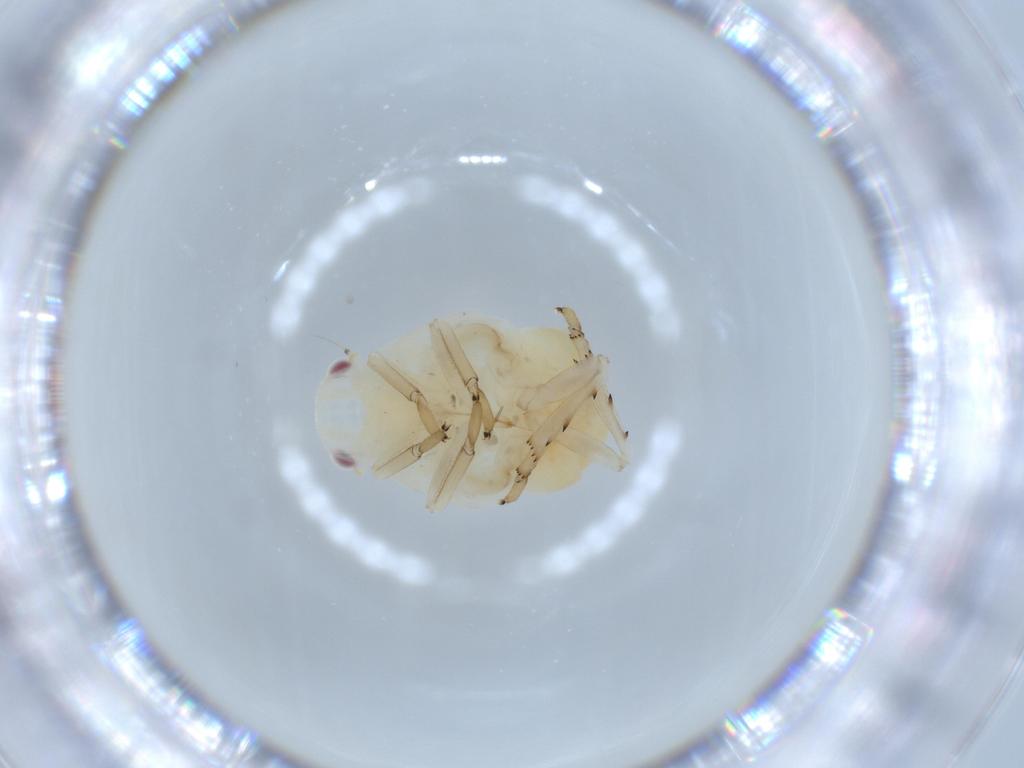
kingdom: Animalia
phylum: Arthropoda
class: Insecta
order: Hemiptera
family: Flatidae
